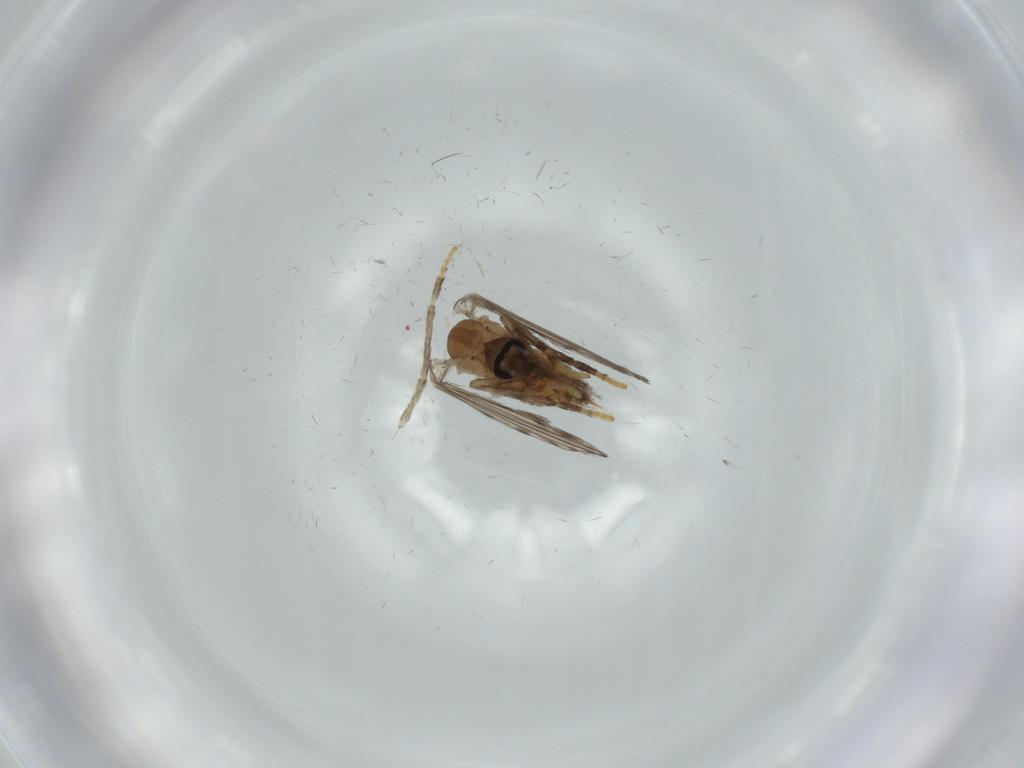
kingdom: Animalia
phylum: Arthropoda
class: Insecta
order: Diptera
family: Psychodidae
